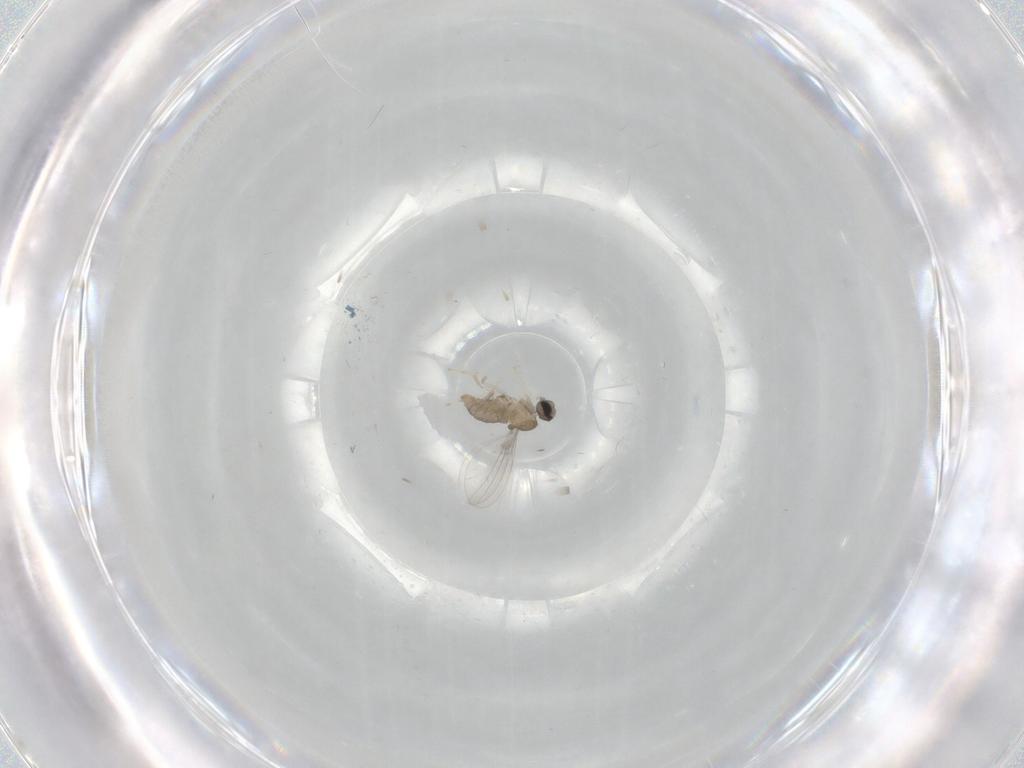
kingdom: Animalia
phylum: Arthropoda
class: Insecta
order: Diptera
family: Cecidomyiidae
